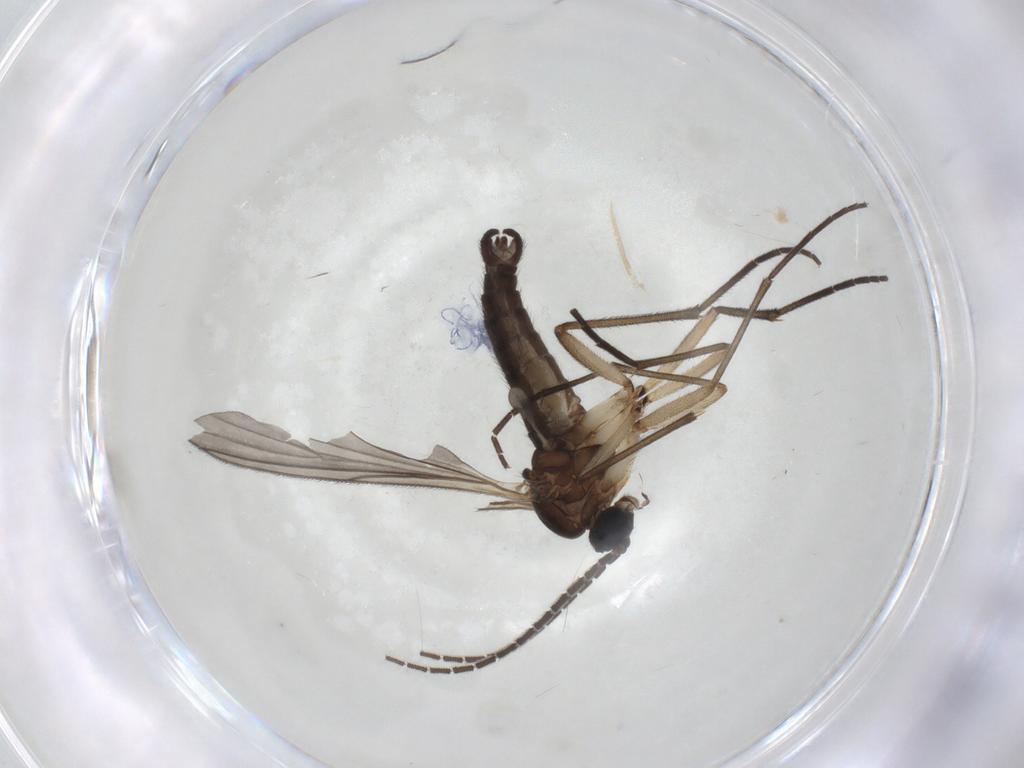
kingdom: Animalia
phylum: Arthropoda
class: Insecta
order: Diptera
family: Sciaridae
